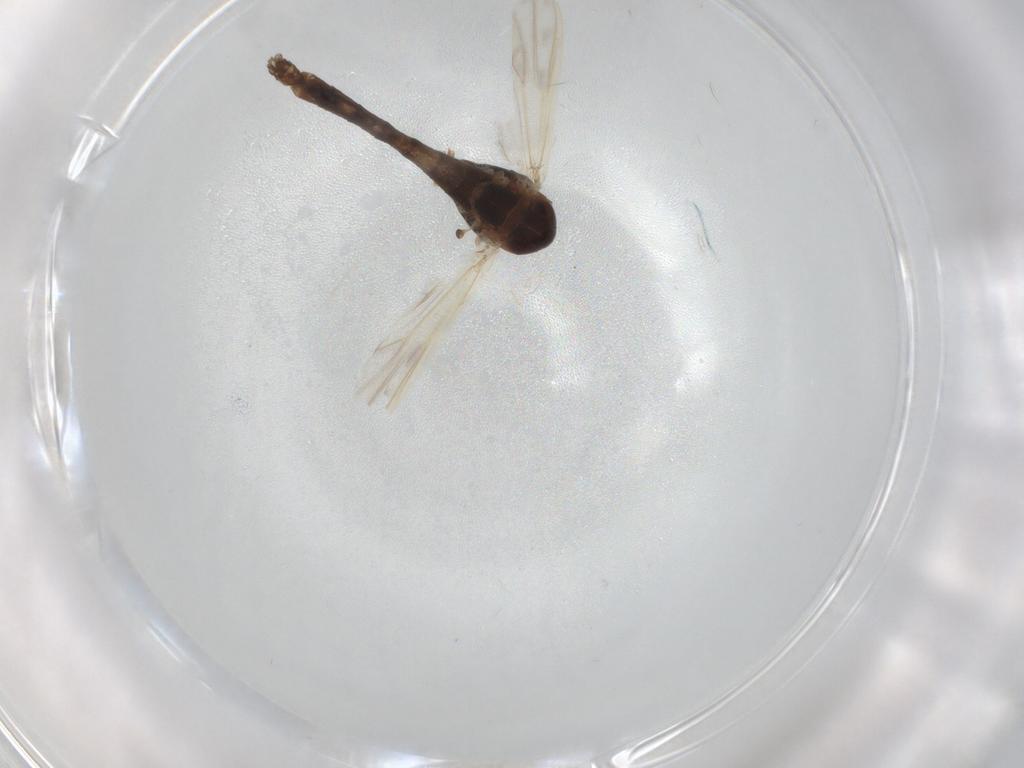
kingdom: Animalia
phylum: Arthropoda
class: Insecta
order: Diptera
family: Chironomidae
